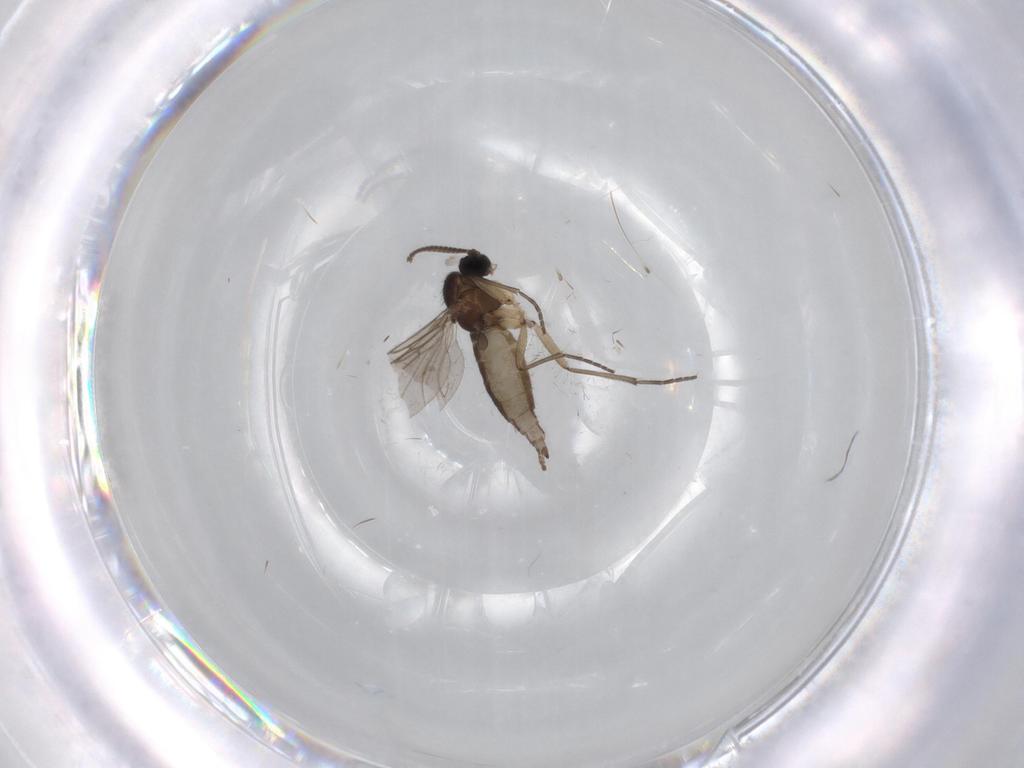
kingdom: Animalia
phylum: Arthropoda
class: Insecta
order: Diptera
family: Sciaridae
